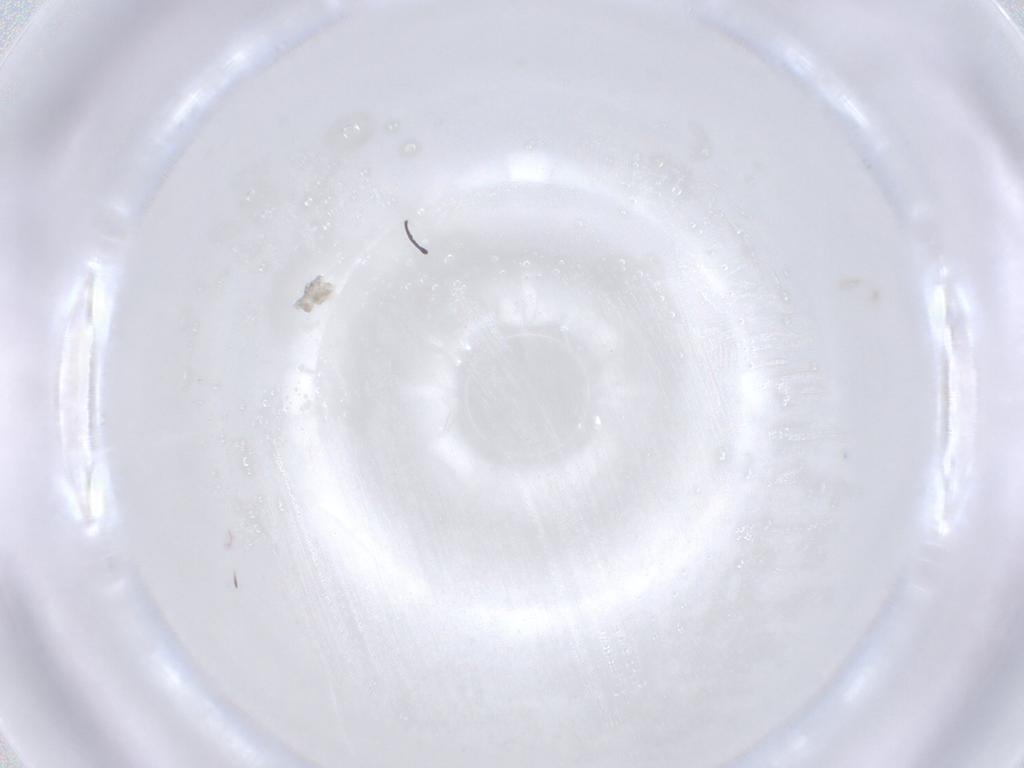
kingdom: Animalia
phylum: Arthropoda
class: Insecta
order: Diptera
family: Cecidomyiidae
